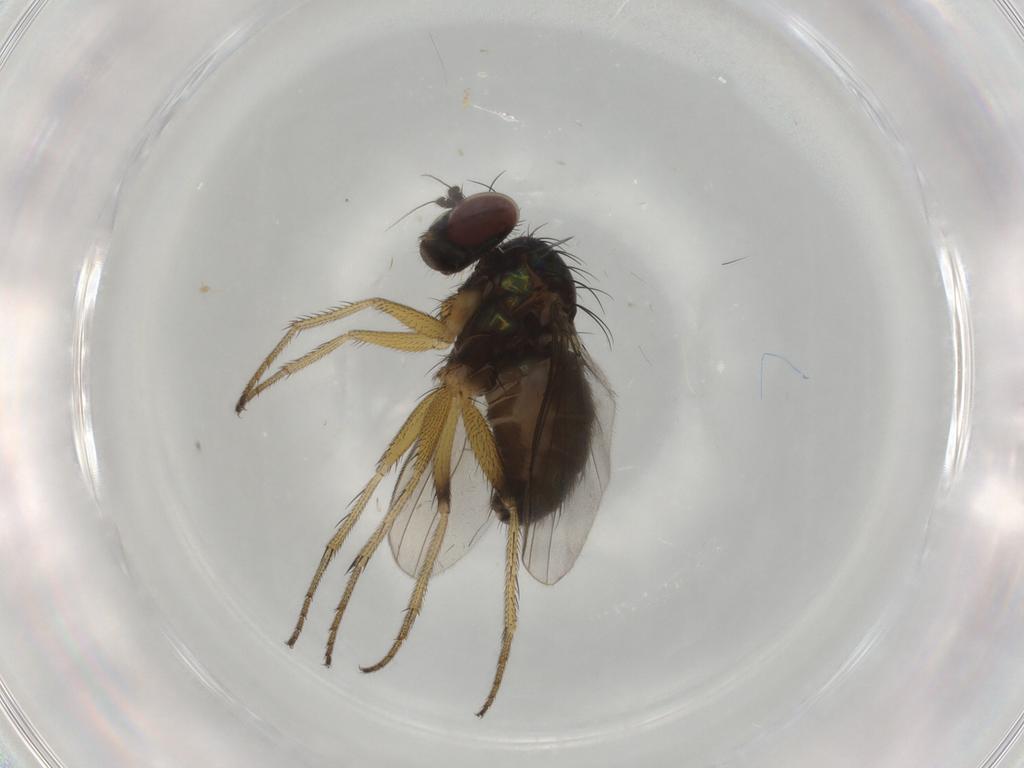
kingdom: Animalia
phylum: Arthropoda
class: Insecta
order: Diptera
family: Dolichopodidae
